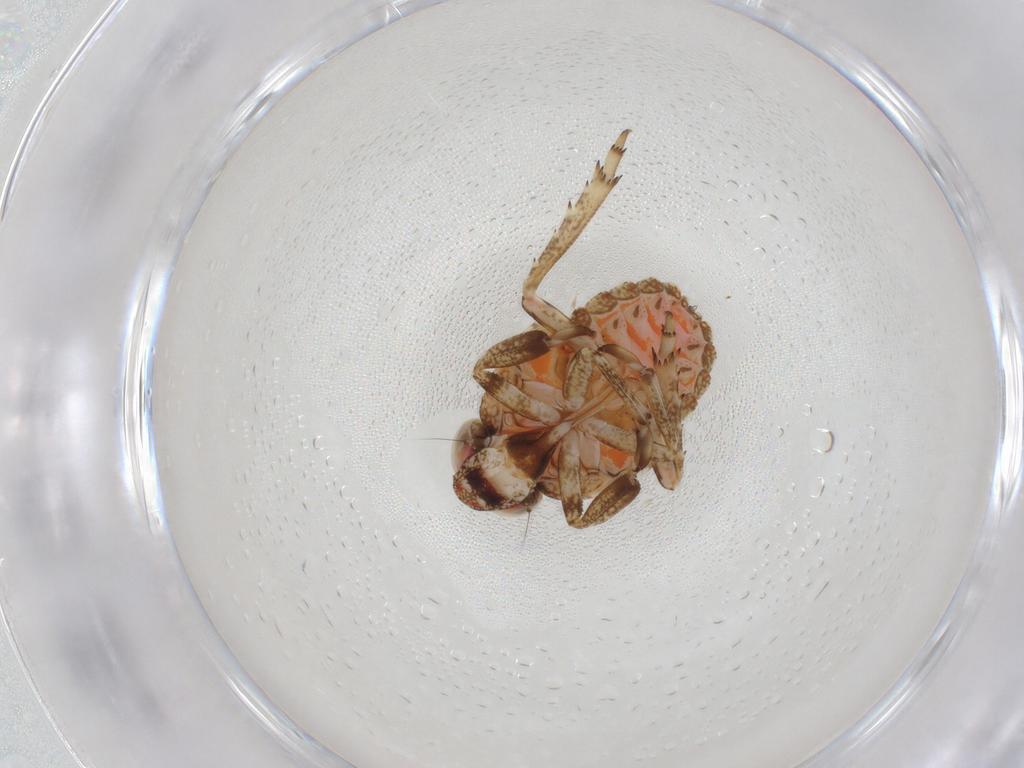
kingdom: Animalia
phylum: Arthropoda
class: Insecta
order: Hemiptera
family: Issidae
